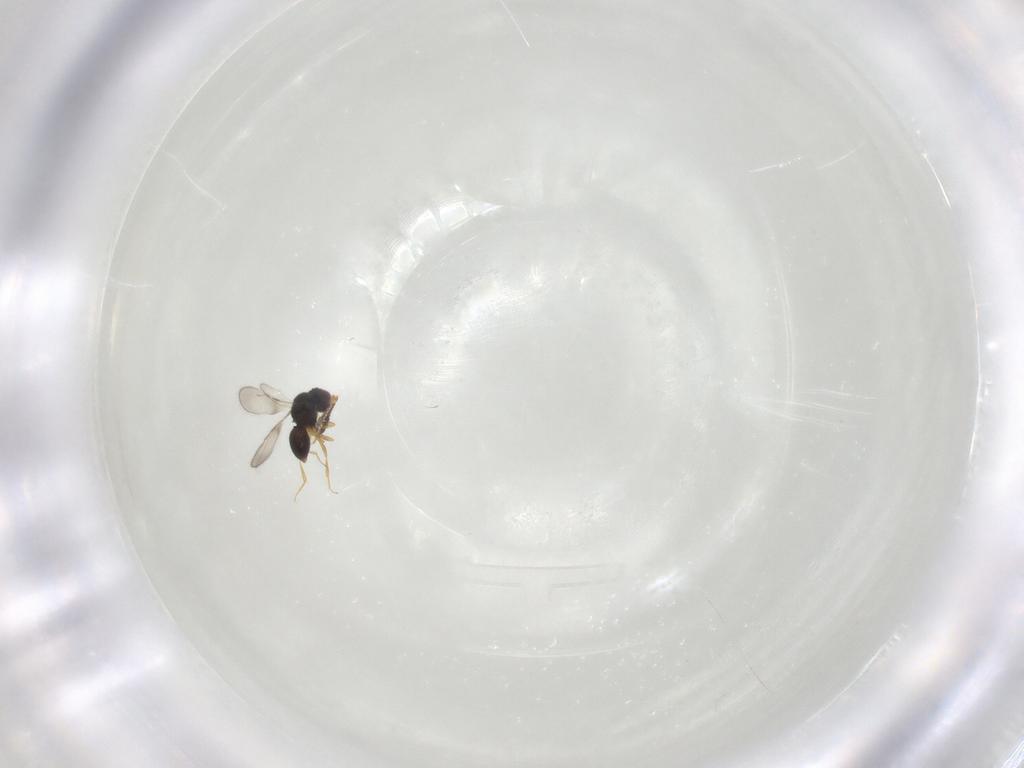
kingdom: Animalia
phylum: Arthropoda
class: Insecta
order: Hymenoptera
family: Ceraphronidae
